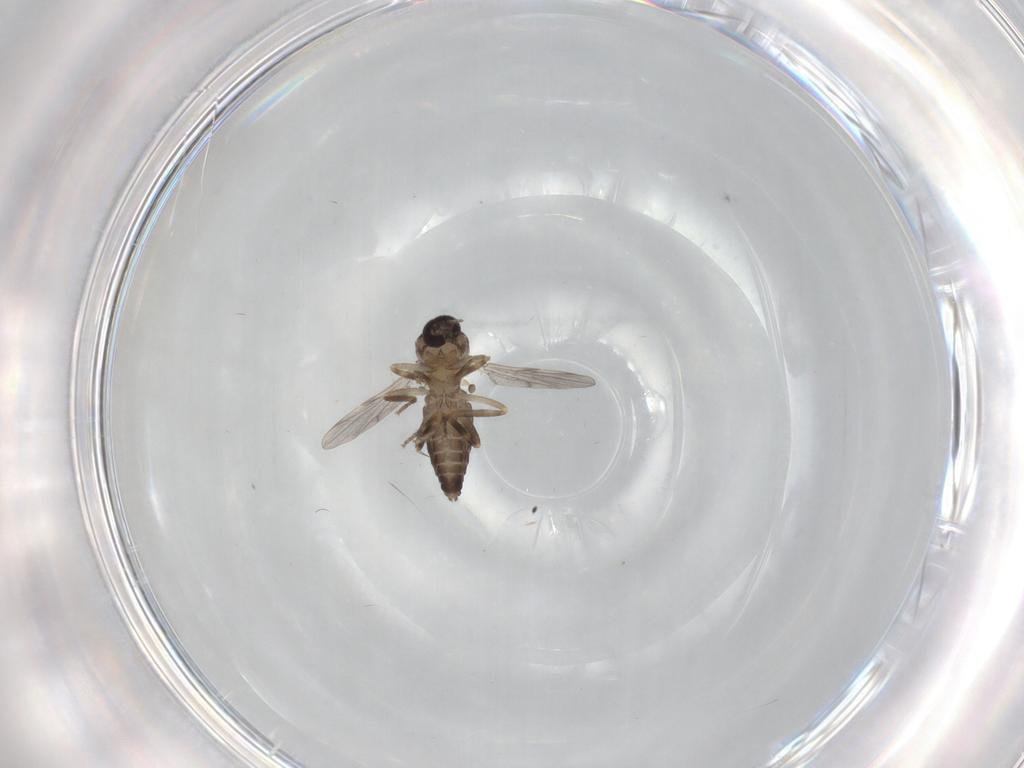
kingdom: Animalia
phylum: Arthropoda
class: Insecta
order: Diptera
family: Ceratopogonidae
